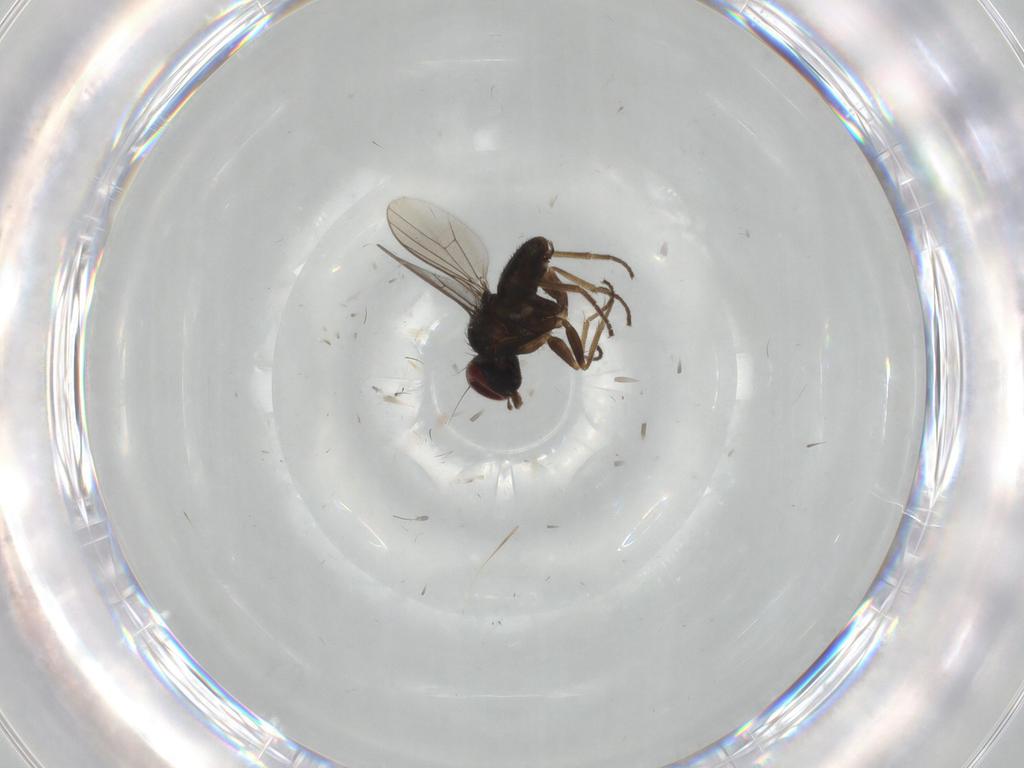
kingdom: Animalia
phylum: Arthropoda
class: Insecta
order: Diptera
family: Dolichopodidae
